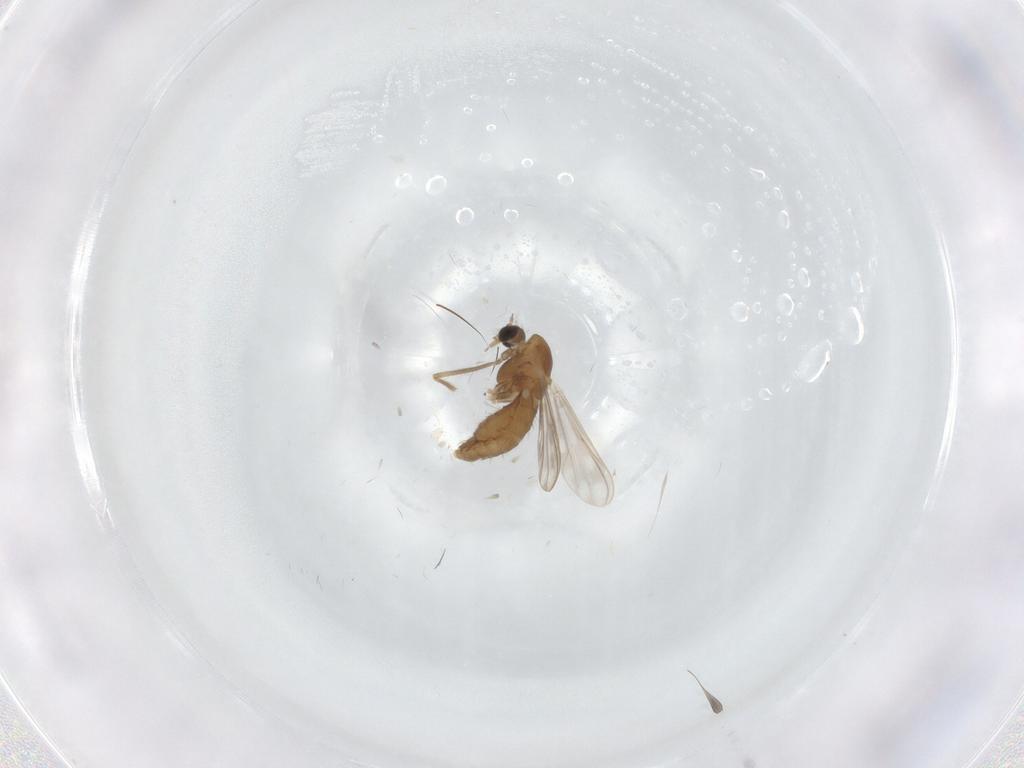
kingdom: Animalia
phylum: Arthropoda
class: Insecta
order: Diptera
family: Chironomidae
